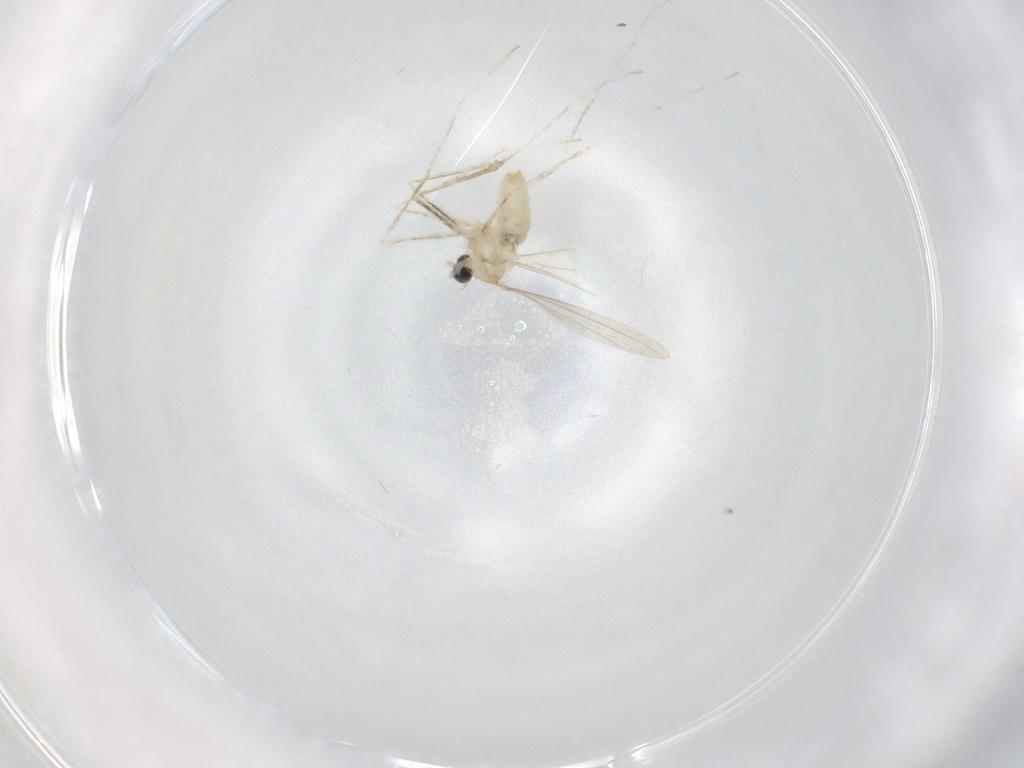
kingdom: Animalia
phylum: Arthropoda
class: Insecta
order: Diptera
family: Cecidomyiidae
